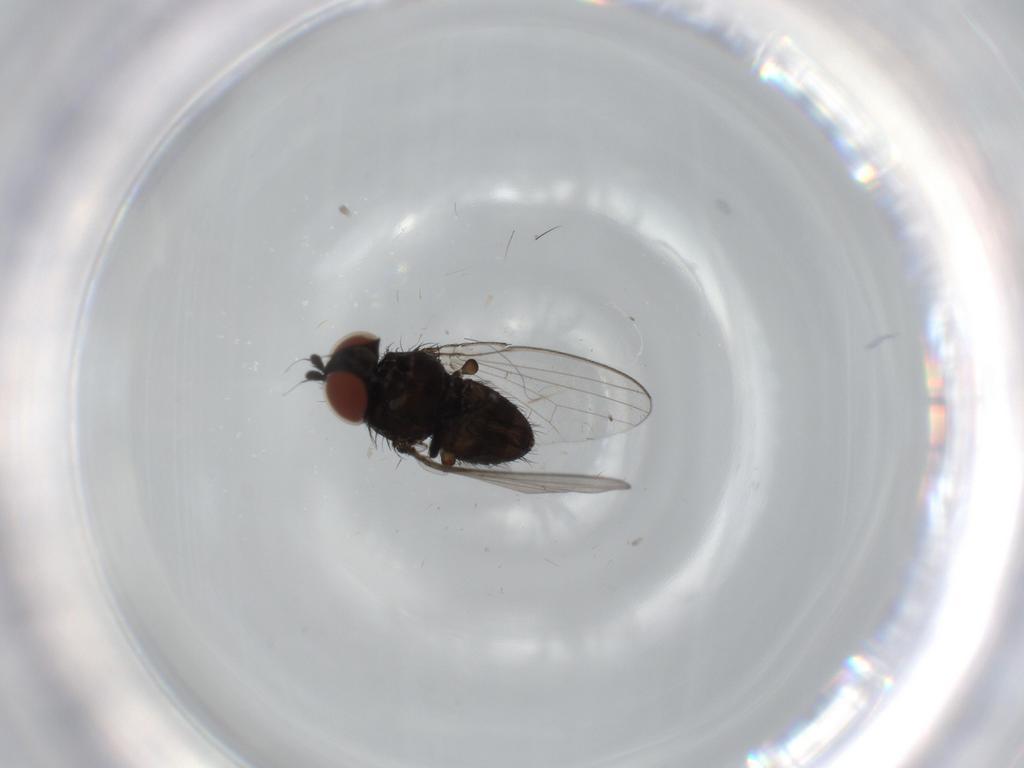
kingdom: Animalia
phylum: Arthropoda
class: Insecta
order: Diptera
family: Milichiidae
